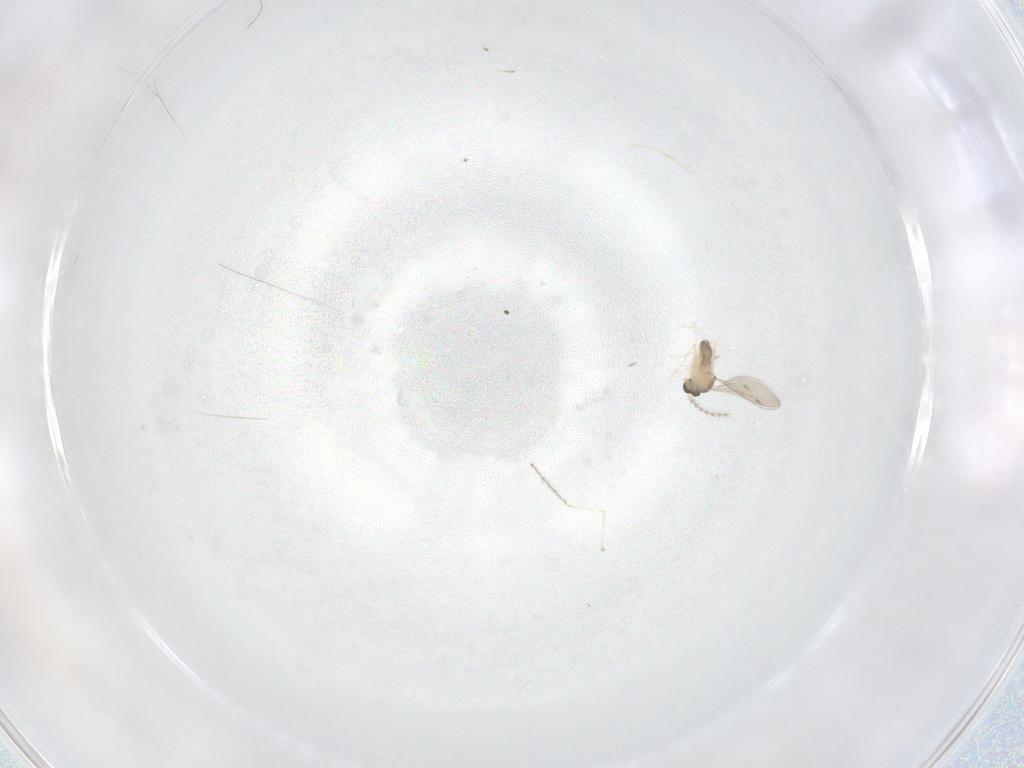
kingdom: Animalia
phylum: Arthropoda
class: Insecta
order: Diptera
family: Cecidomyiidae
